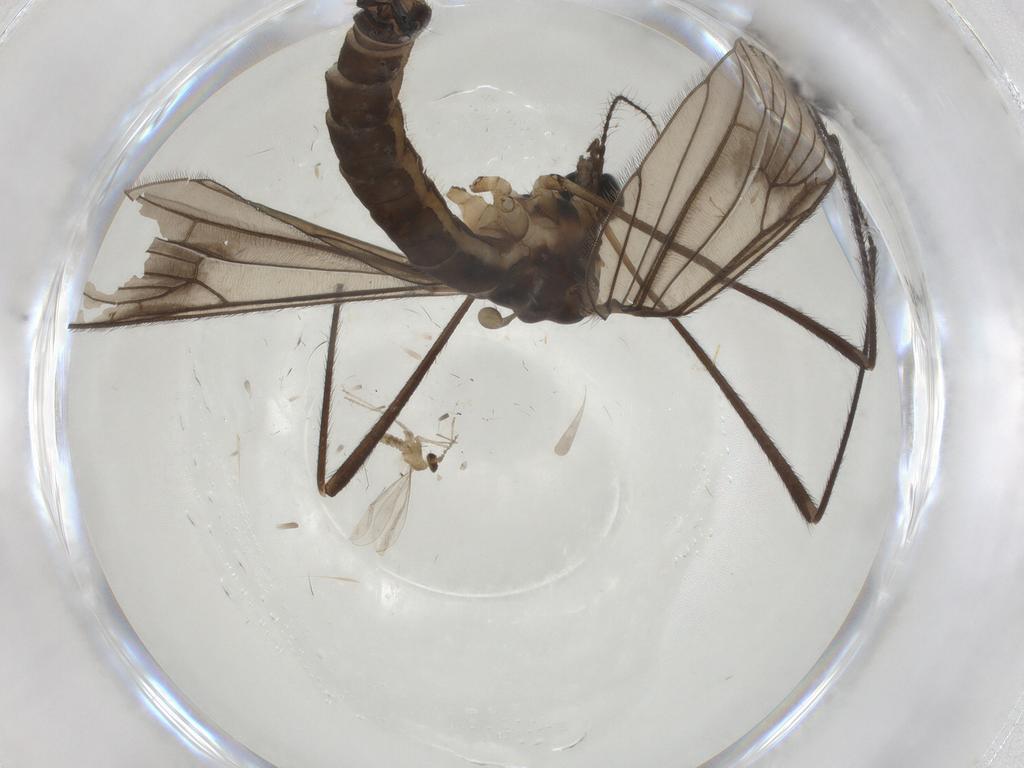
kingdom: Animalia
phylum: Arthropoda
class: Insecta
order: Diptera
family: Sciaridae
